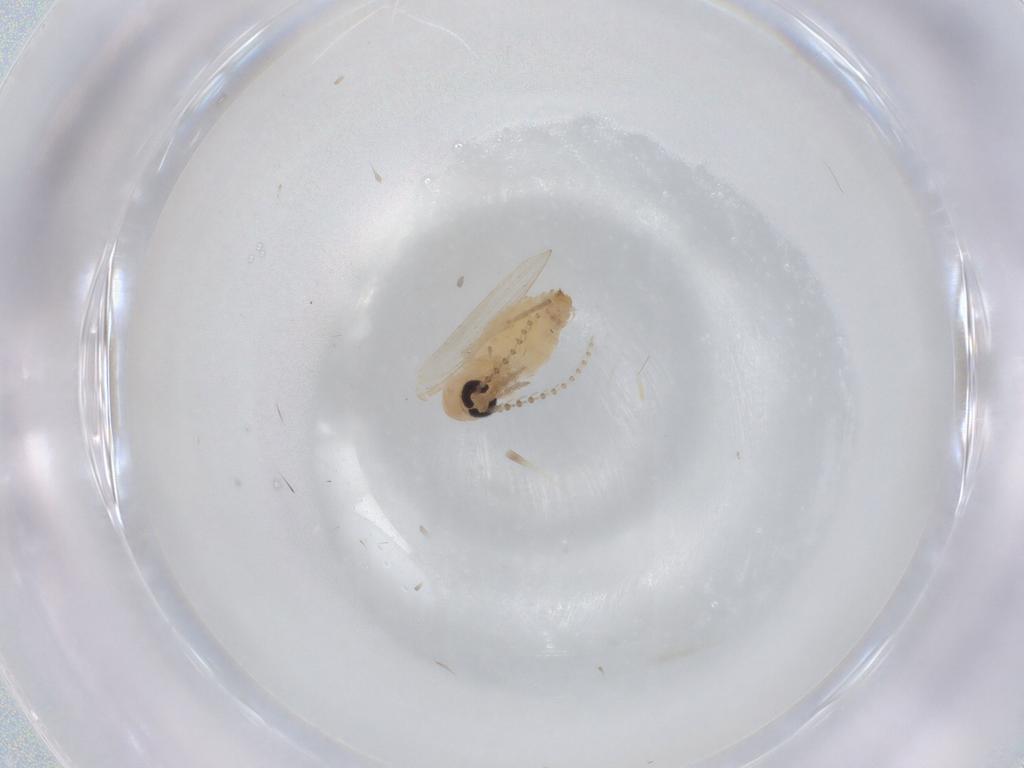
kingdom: Animalia
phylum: Arthropoda
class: Insecta
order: Diptera
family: Psychodidae
